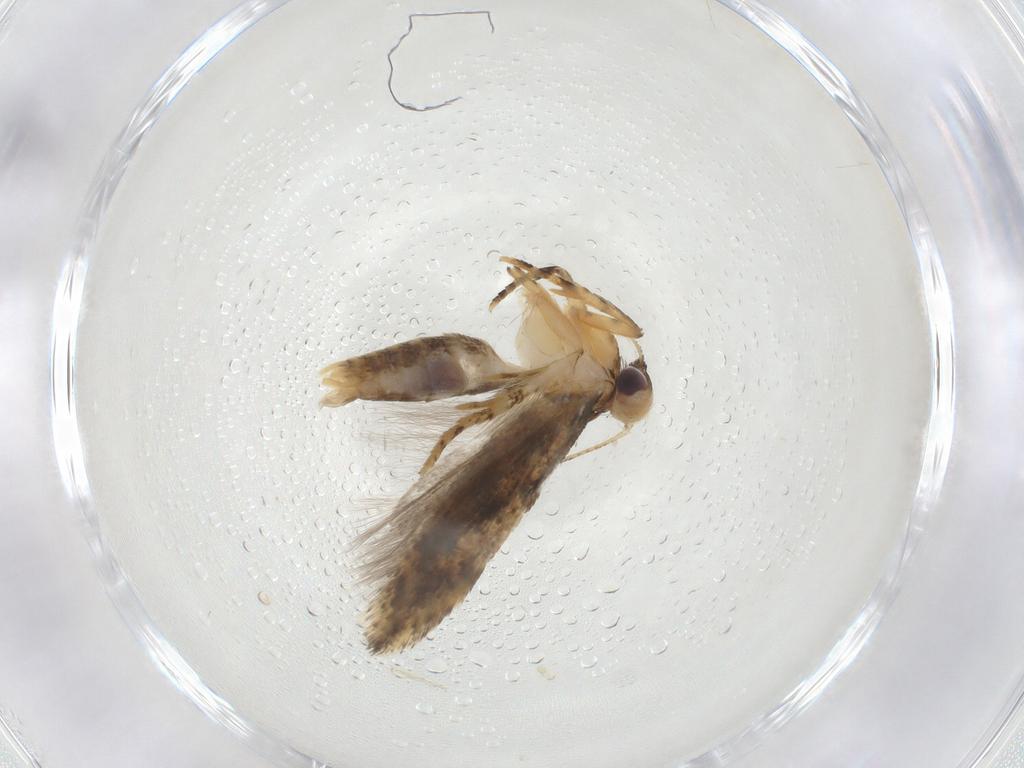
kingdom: Animalia
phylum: Arthropoda
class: Insecta
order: Lepidoptera
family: Gelechiidae
